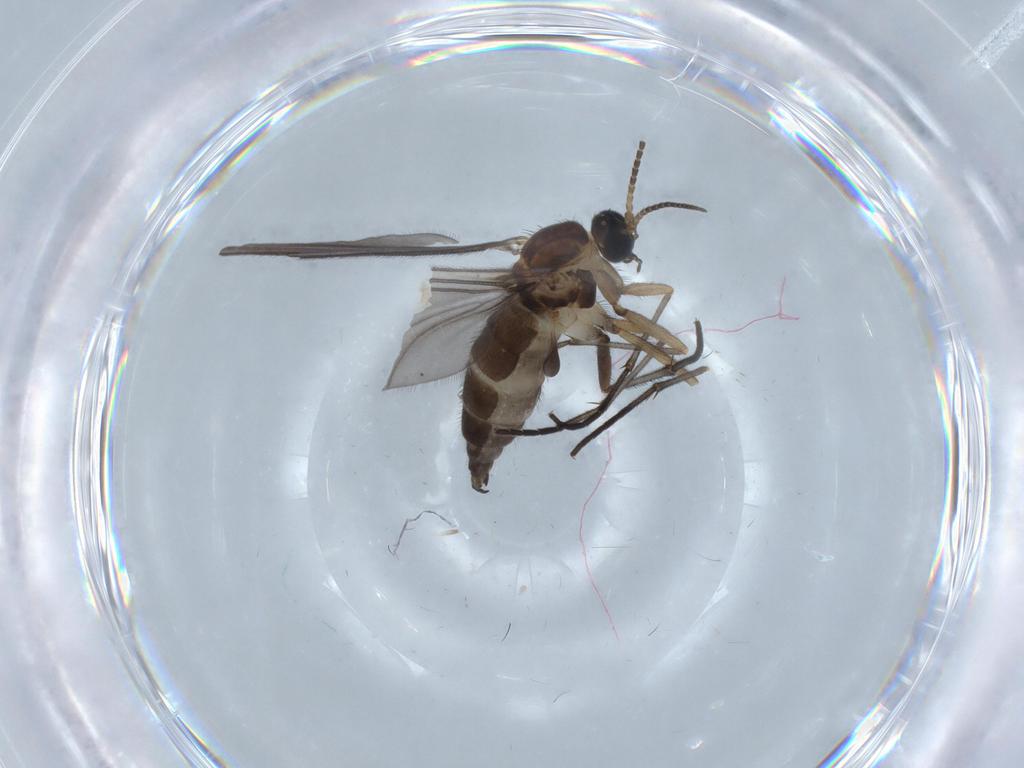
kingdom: Animalia
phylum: Arthropoda
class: Insecta
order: Diptera
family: Sciaridae
